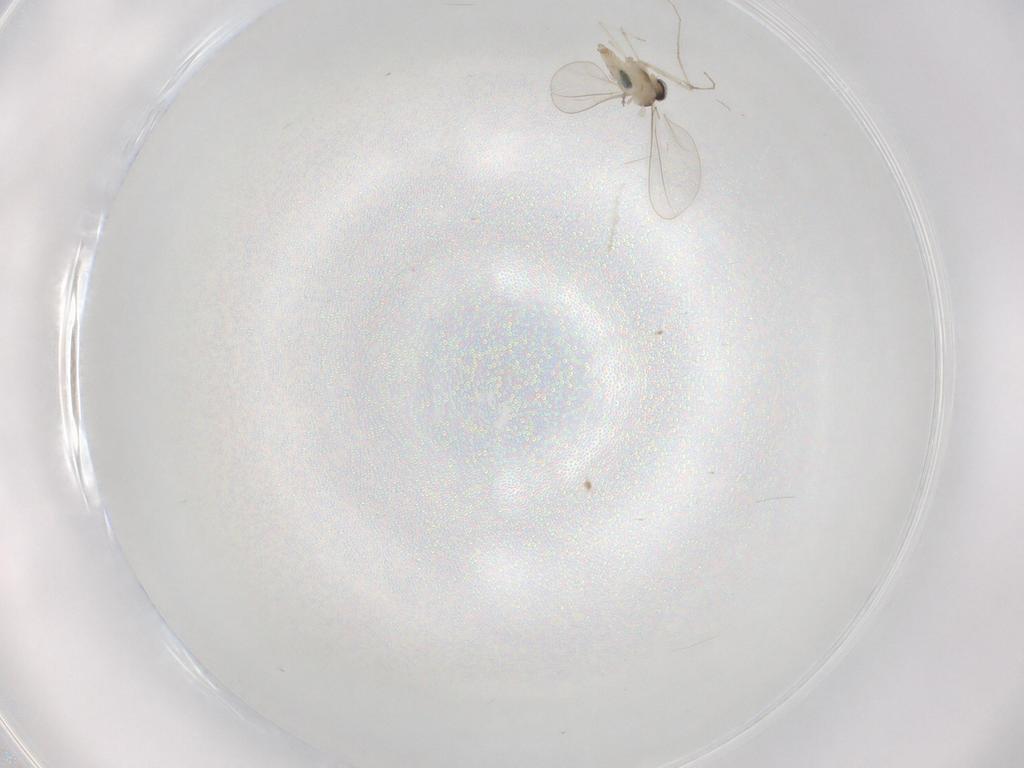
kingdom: Animalia
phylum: Arthropoda
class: Insecta
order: Diptera
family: Cecidomyiidae
